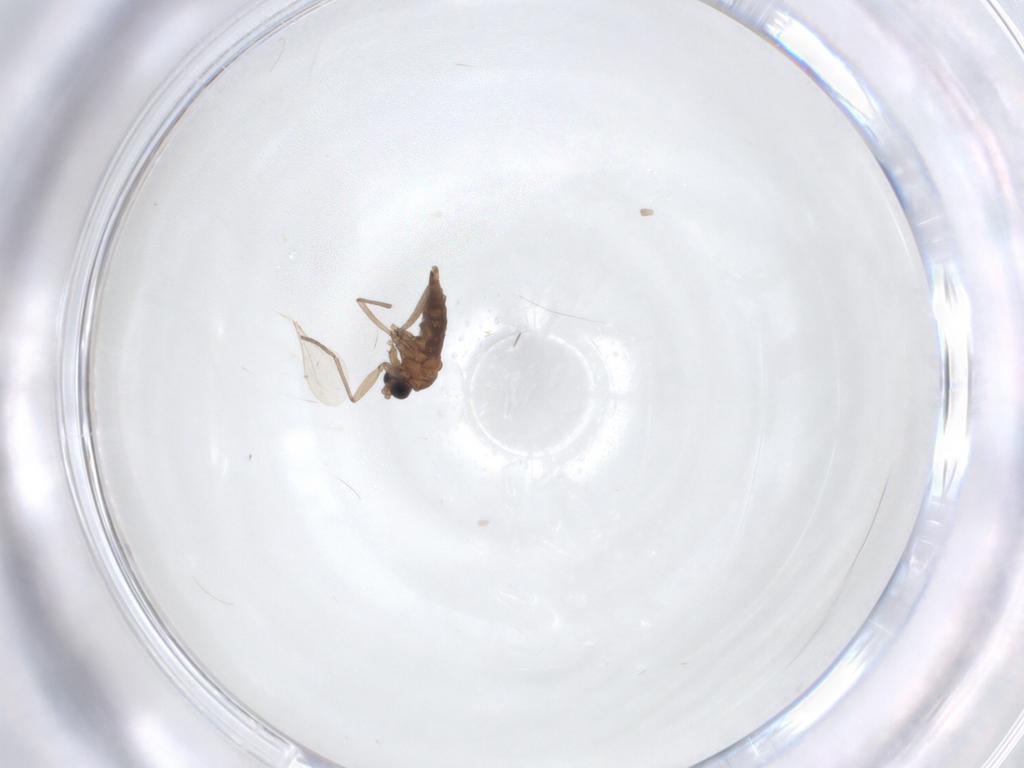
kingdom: Animalia
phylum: Arthropoda
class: Insecta
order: Diptera
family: Sciaridae
